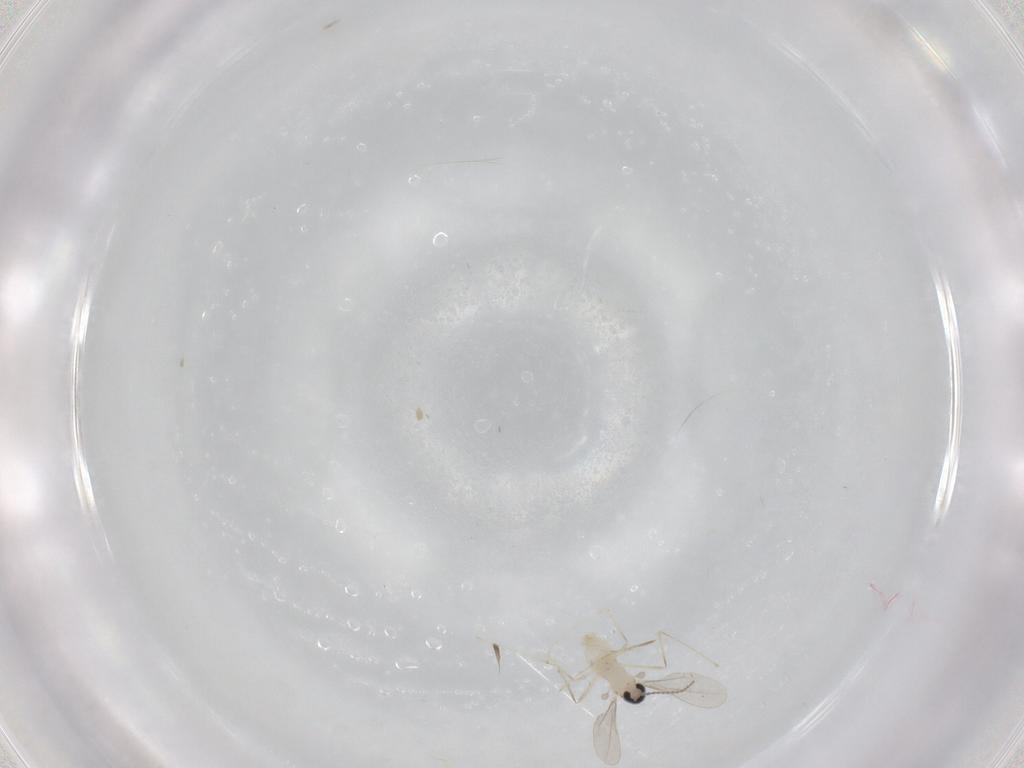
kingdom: Animalia
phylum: Arthropoda
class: Insecta
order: Diptera
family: Cecidomyiidae
